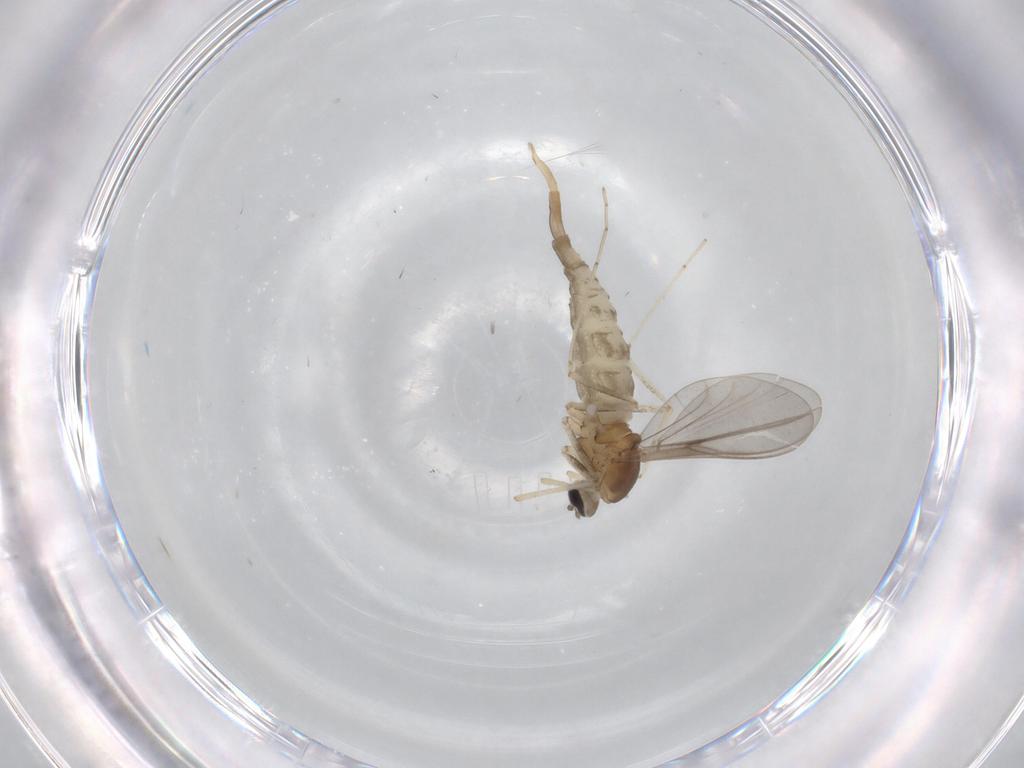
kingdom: Animalia
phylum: Arthropoda
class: Insecta
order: Diptera
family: Cecidomyiidae
